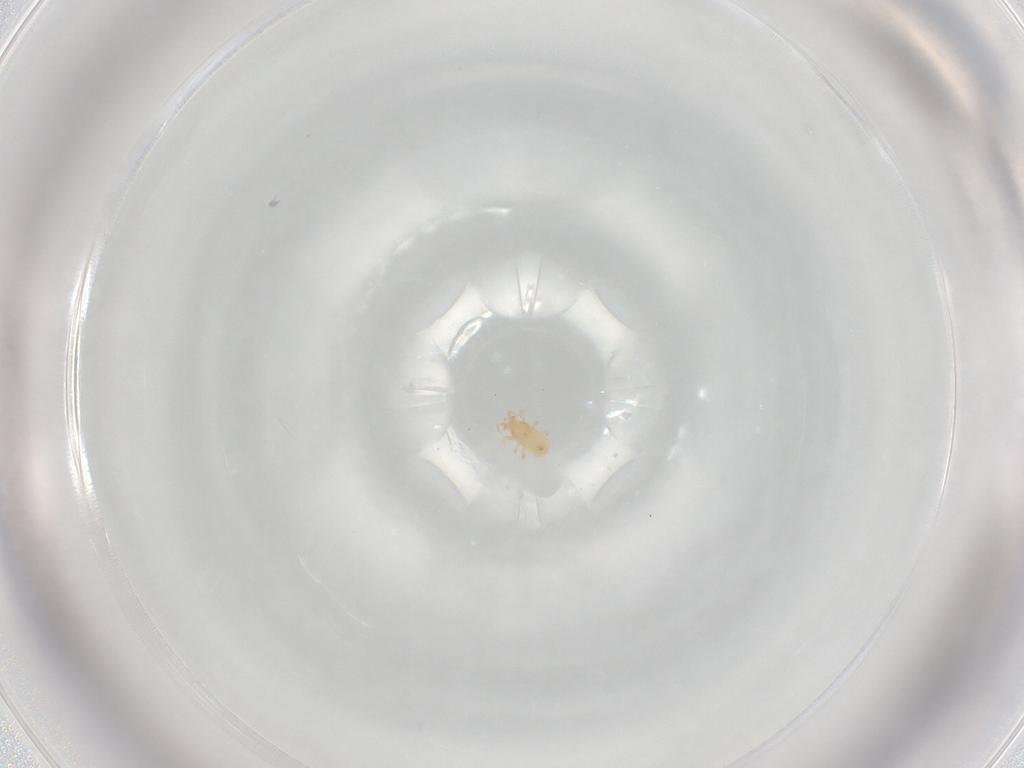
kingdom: Animalia
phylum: Arthropoda
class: Arachnida
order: Mesostigmata
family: Ascidae
